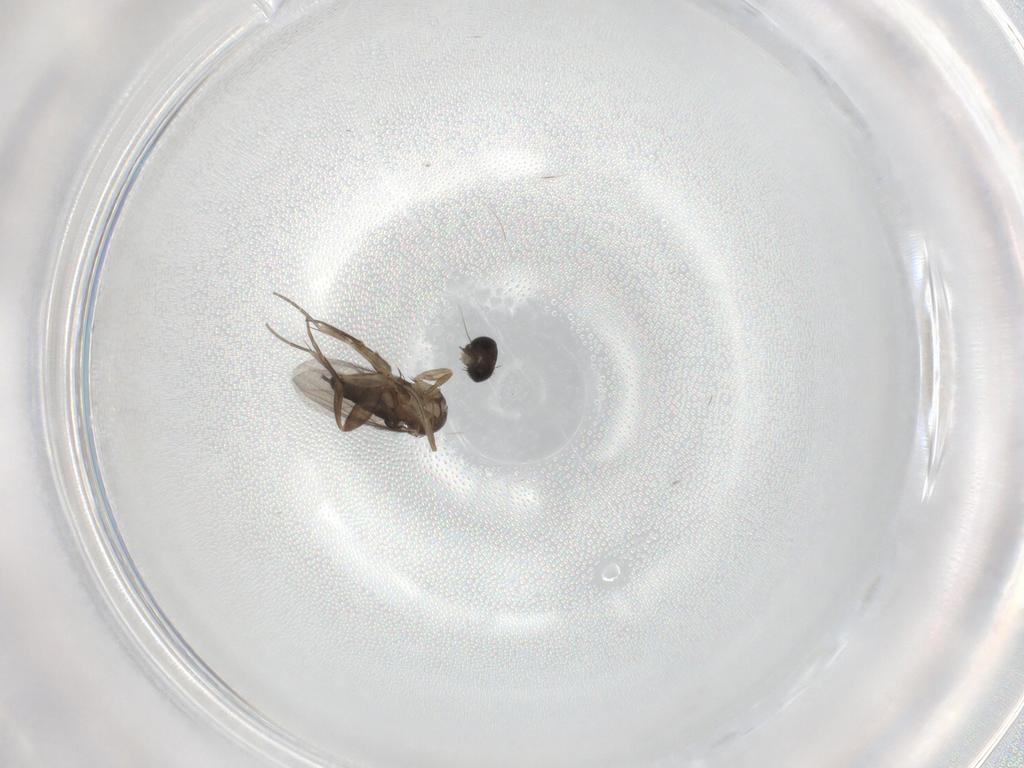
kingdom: Animalia
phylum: Arthropoda
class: Insecta
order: Diptera
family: Phoridae
